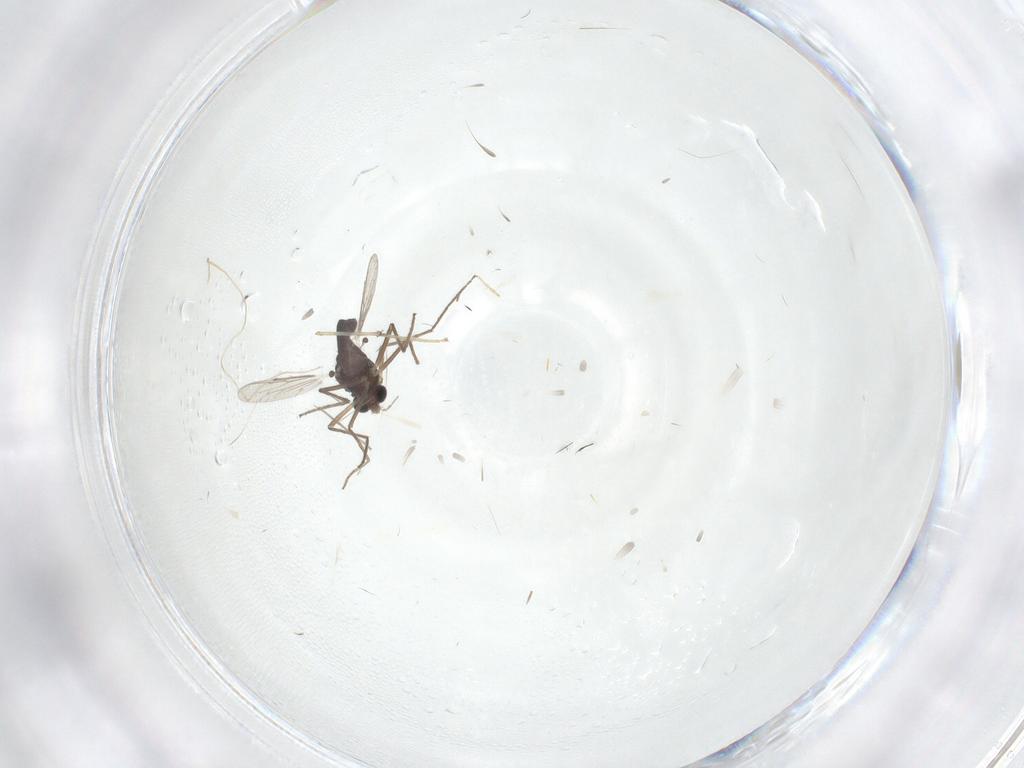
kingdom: Animalia
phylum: Arthropoda
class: Insecta
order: Diptera
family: Chironomidae
